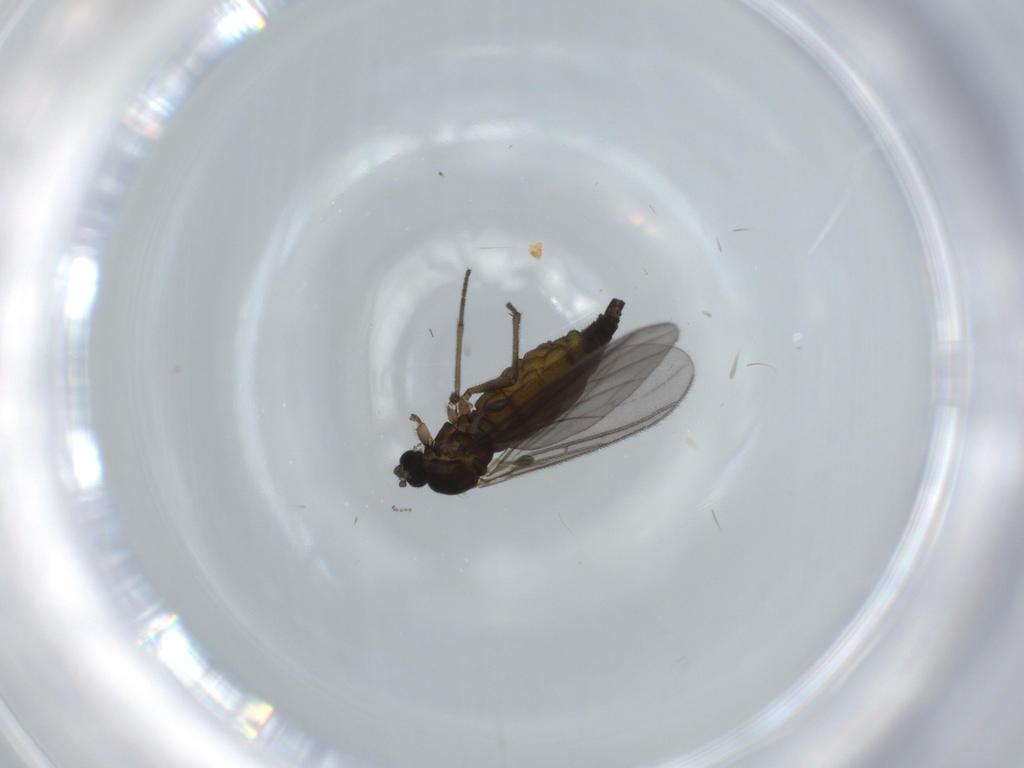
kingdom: Animalia
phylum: Arthropoda
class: Insecta
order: Diptera
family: Sciaridae
